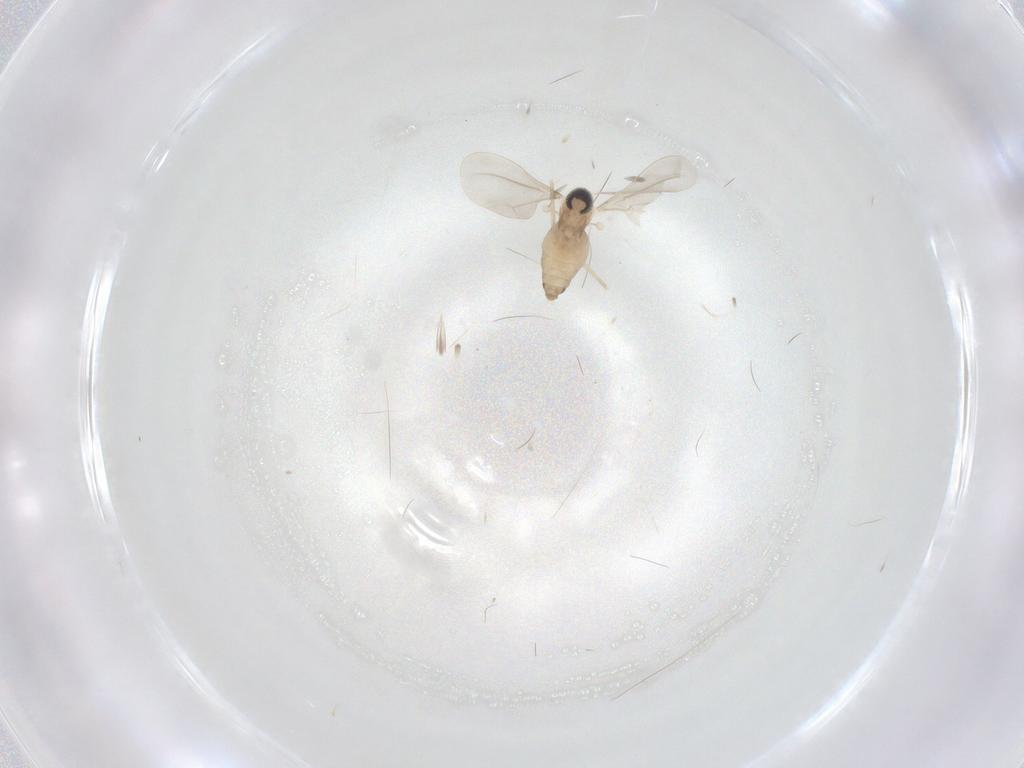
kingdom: Animalia
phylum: Arthropoda
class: Insecta
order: Diptera
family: Cecidomyiidae
